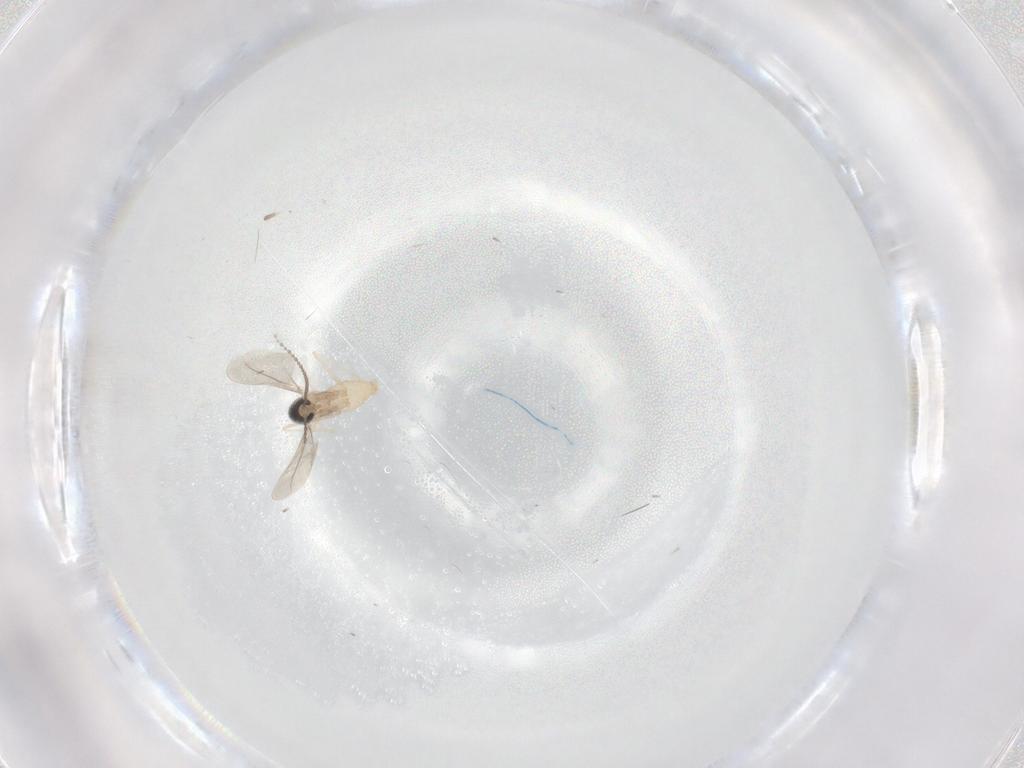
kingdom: Animalia
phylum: Arthropoda
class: Insecta
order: Diptera
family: Cecidomyiidae
